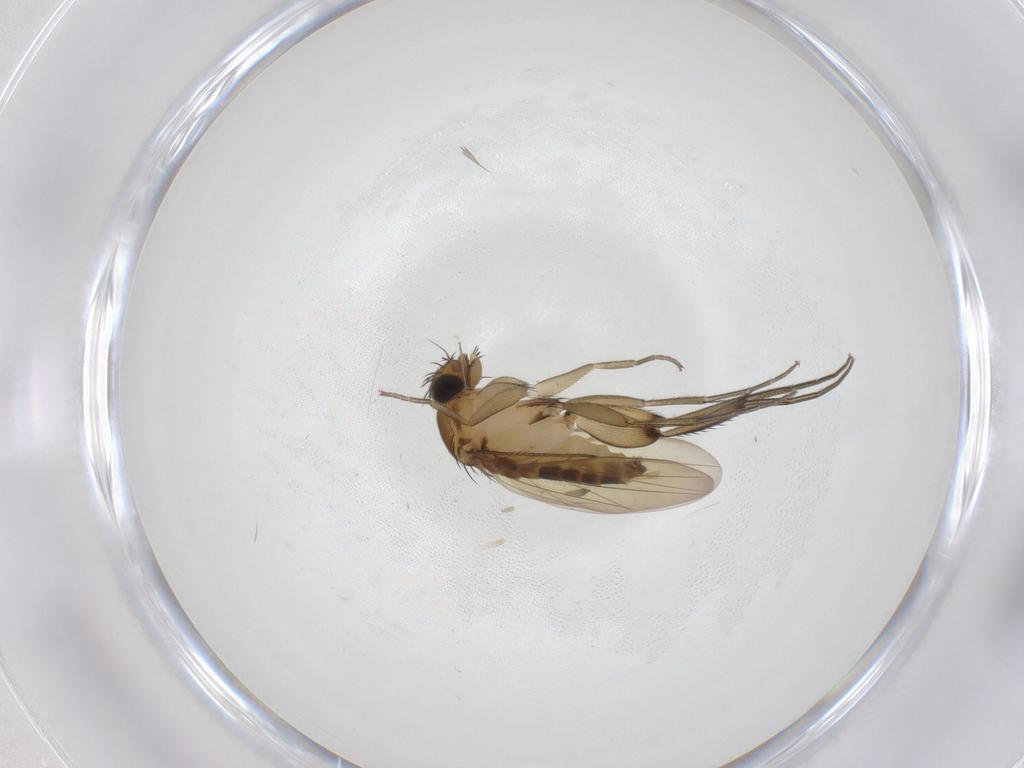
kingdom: Animalia
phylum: Arthropoda
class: Insecta
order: Diptera
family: Phoridae
